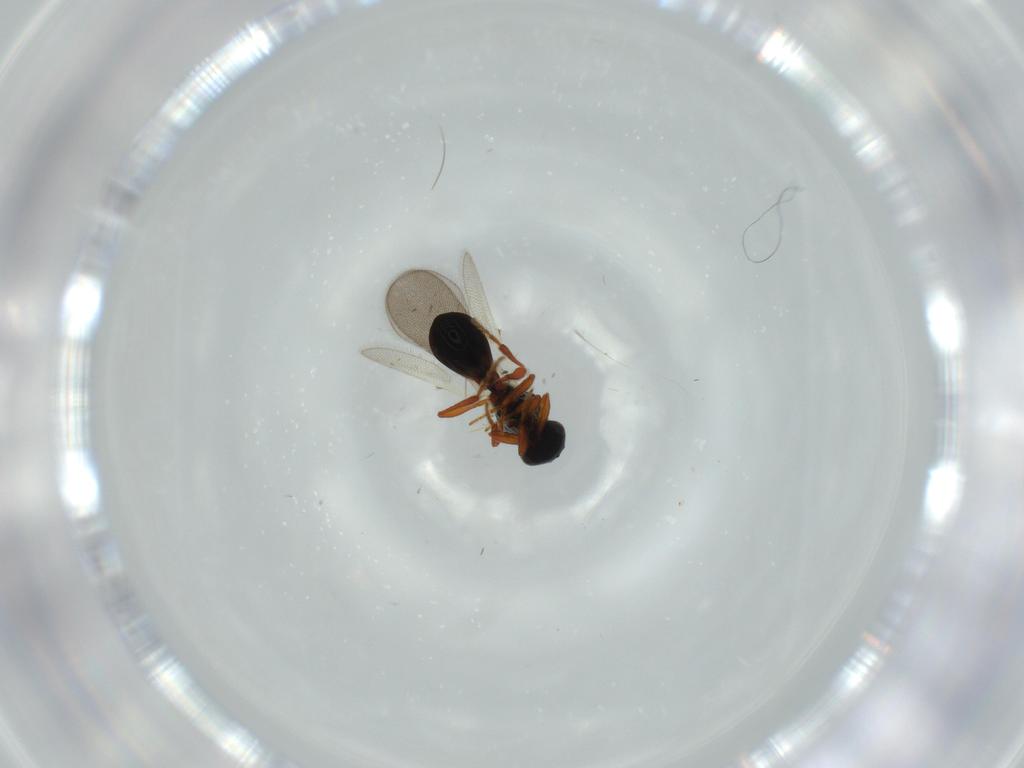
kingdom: Animalia
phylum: Arthropoda
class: Insecta
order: Hymenoptera
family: Platygastridae
